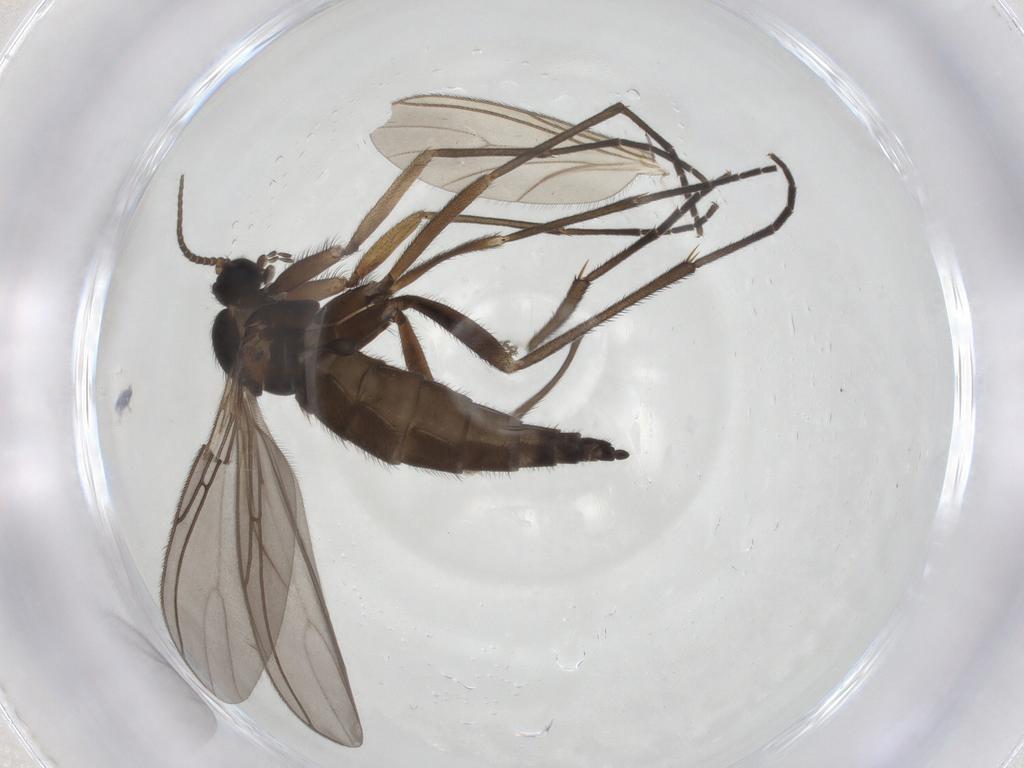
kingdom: Animalia
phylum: Arthropoda
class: Insecta
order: Diptera
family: Sciaridae
